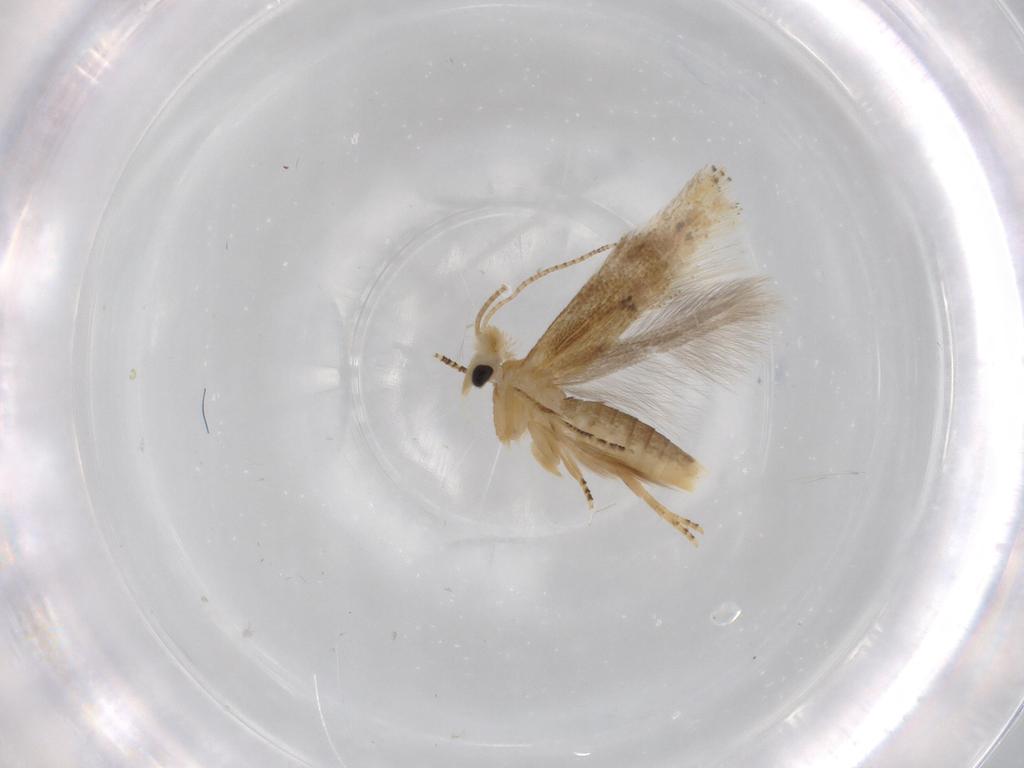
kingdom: Animalia
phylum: Arthropoda
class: Insecta
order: Lepidoptera
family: Bucculatricidae
